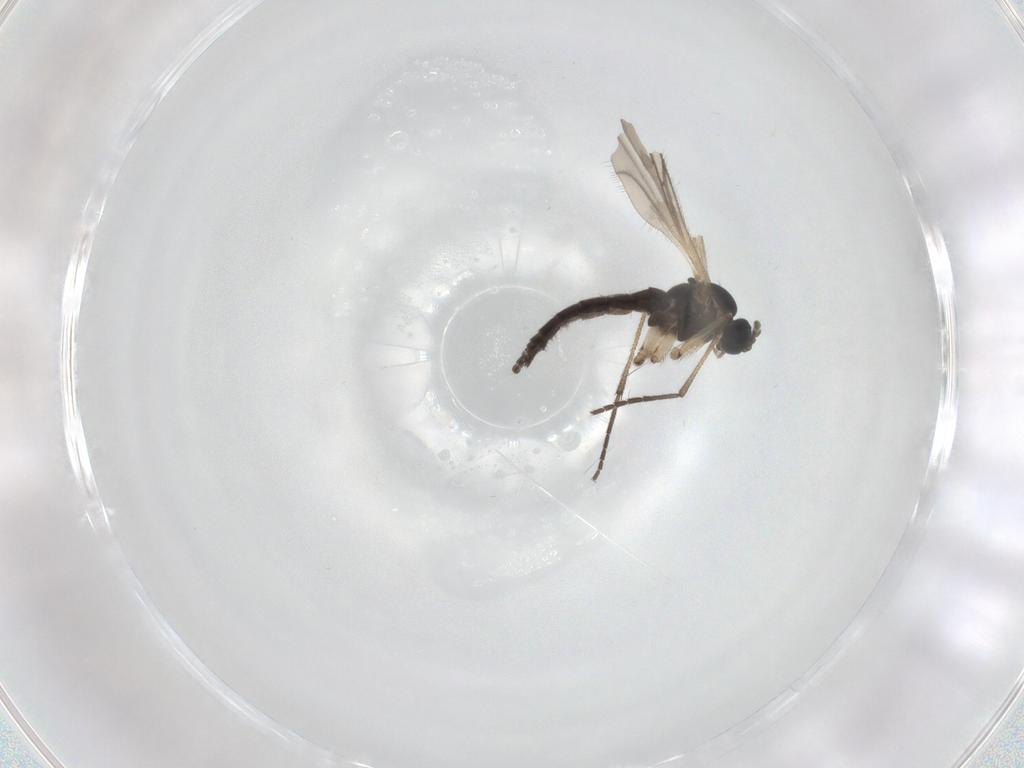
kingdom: Animalia
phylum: Arthropoda
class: Insecta
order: Diptera
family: Sciaridae
